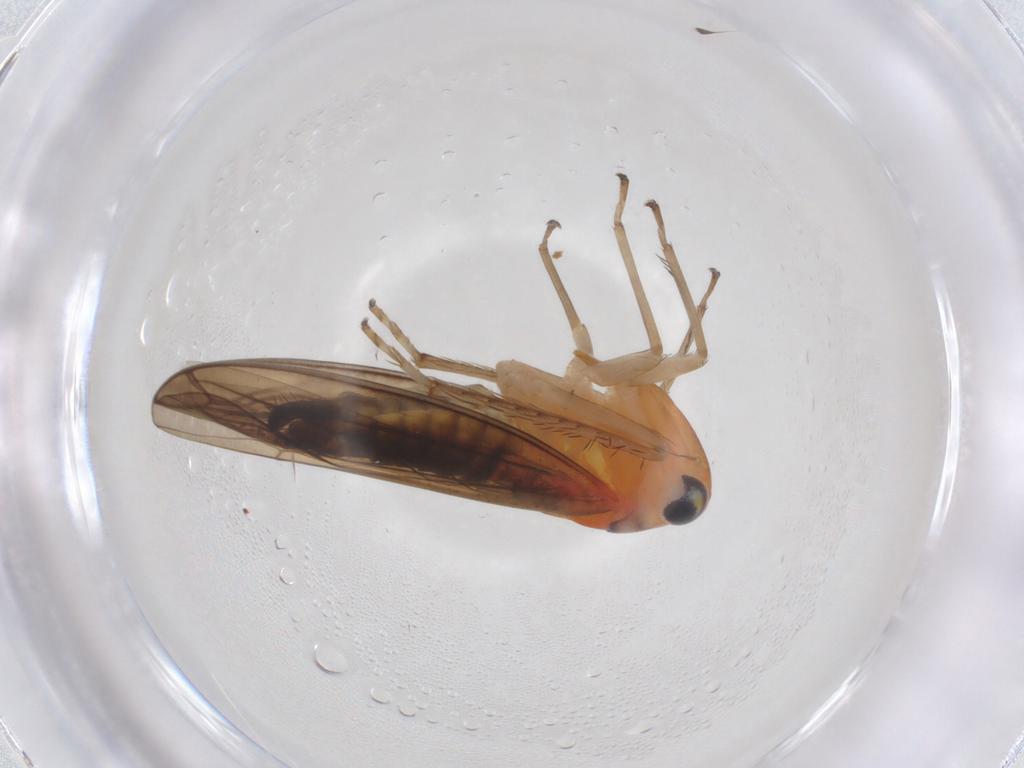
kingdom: Animalia
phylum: Arthropoda
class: Insecta
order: Hemiptera
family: Cicadellidae
